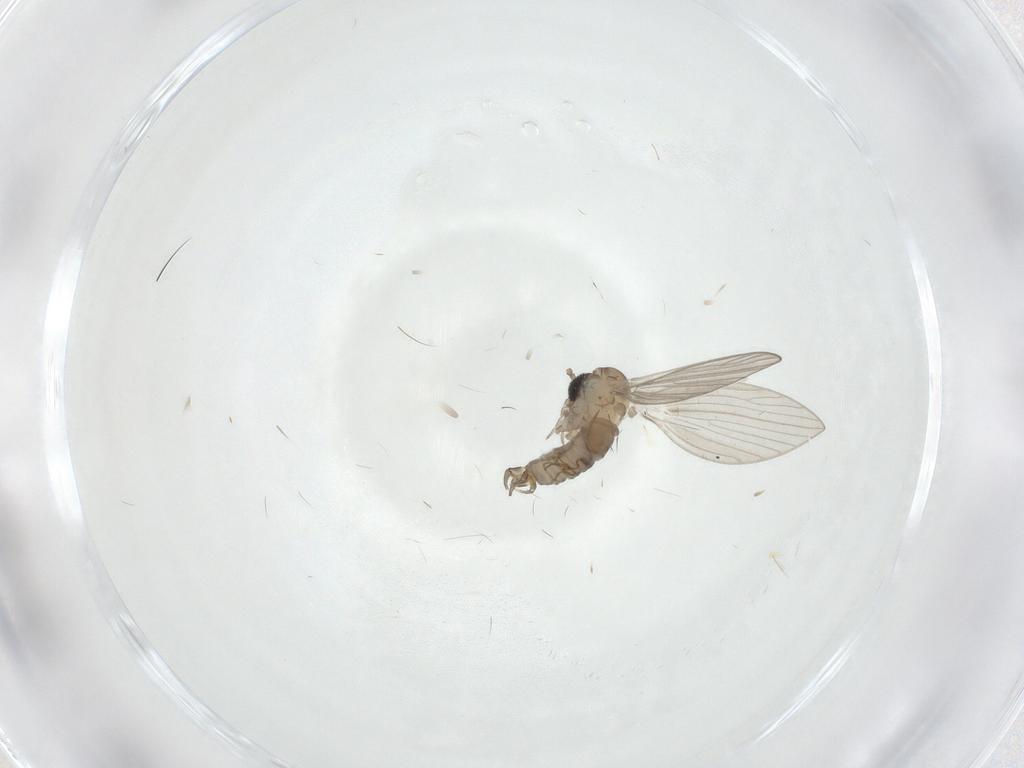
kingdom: Animalia
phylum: Arthropoda
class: Insecta
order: Diptera
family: Psychodidae
